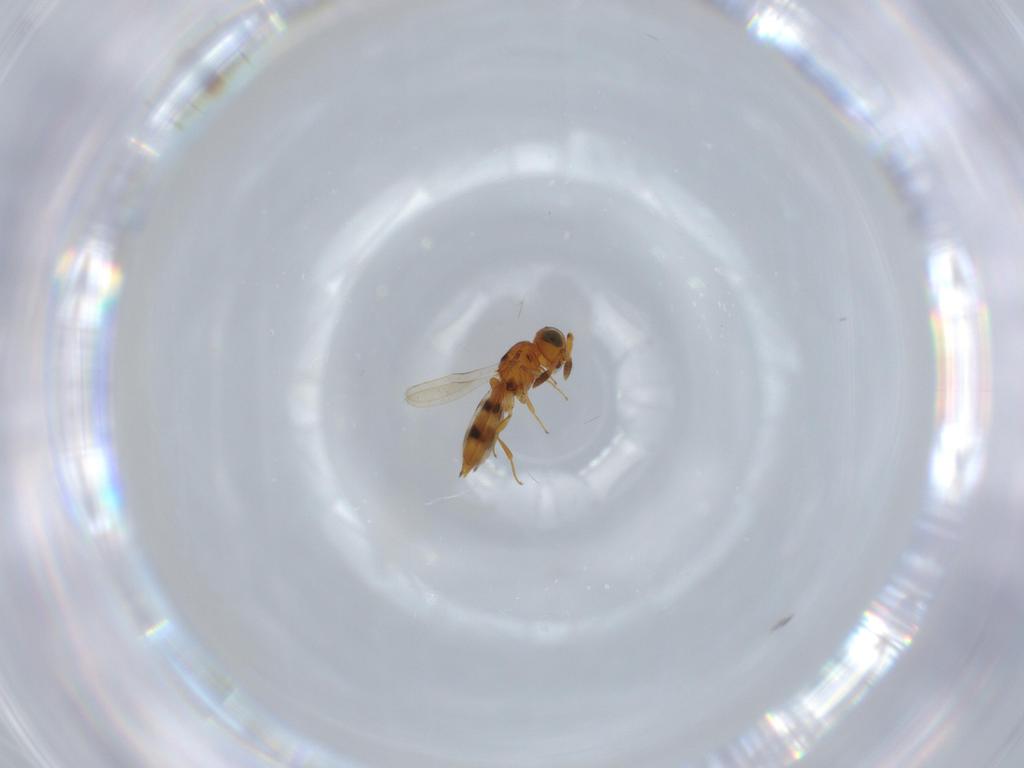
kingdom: Animalia
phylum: Arthropoda
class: Insecta
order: Hymenoptera
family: Scelionidae
